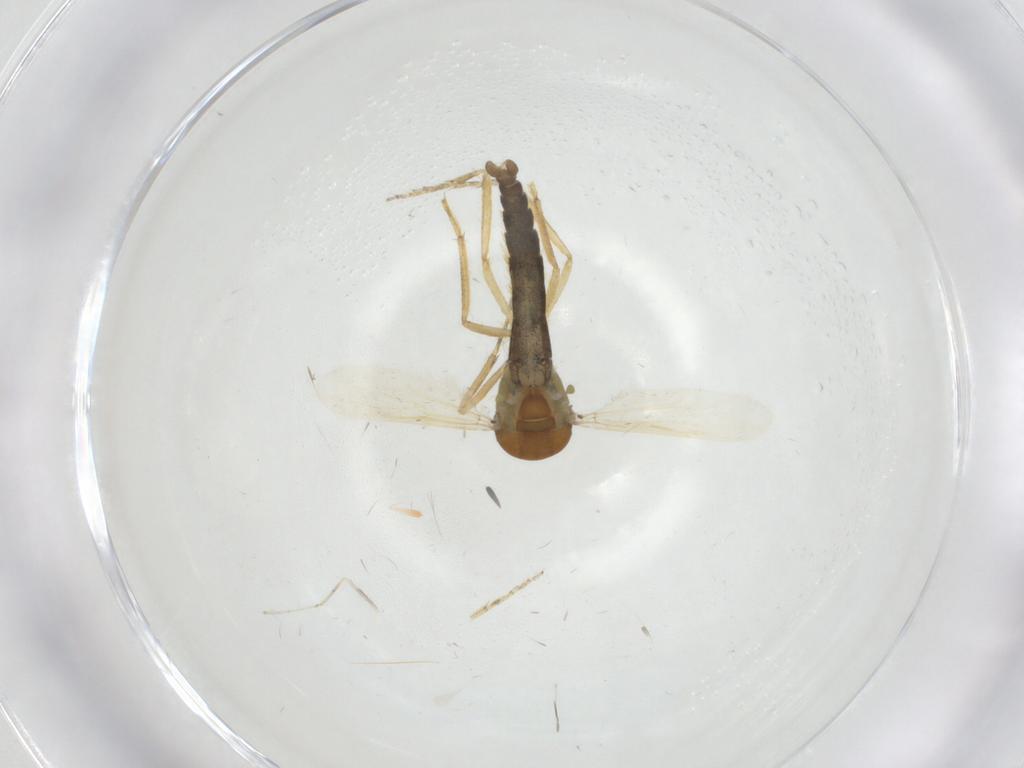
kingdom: Animalia
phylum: Arthropoda
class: Insecta
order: Diptera
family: Ceratopogonidae
